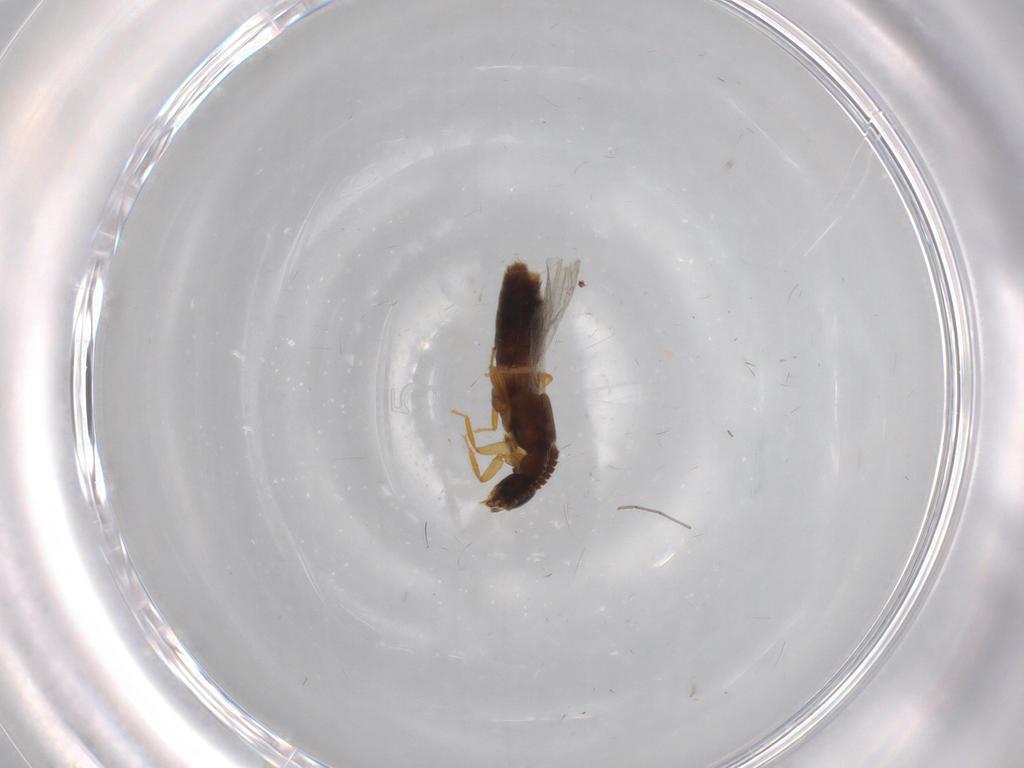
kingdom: Animalia
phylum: Arthropoda
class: Insecta
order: Coleoptera
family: Staphylinidae
